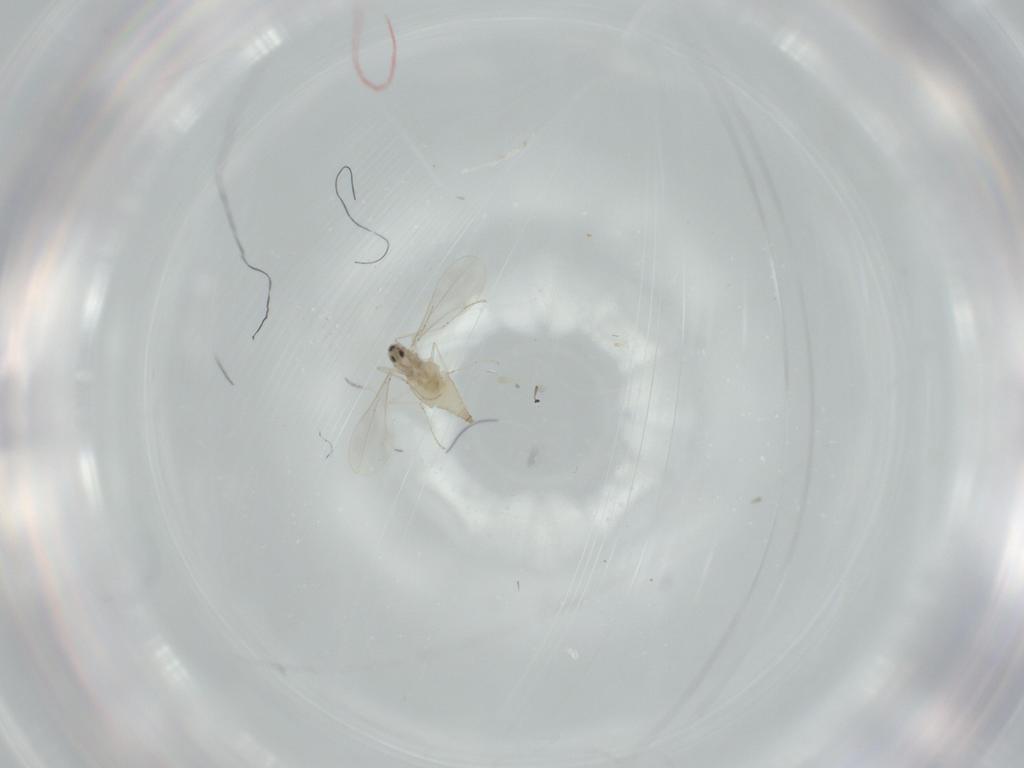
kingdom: Animalia
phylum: Arthropoda
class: Insecta
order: Diptera
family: Cecidomyiidae
